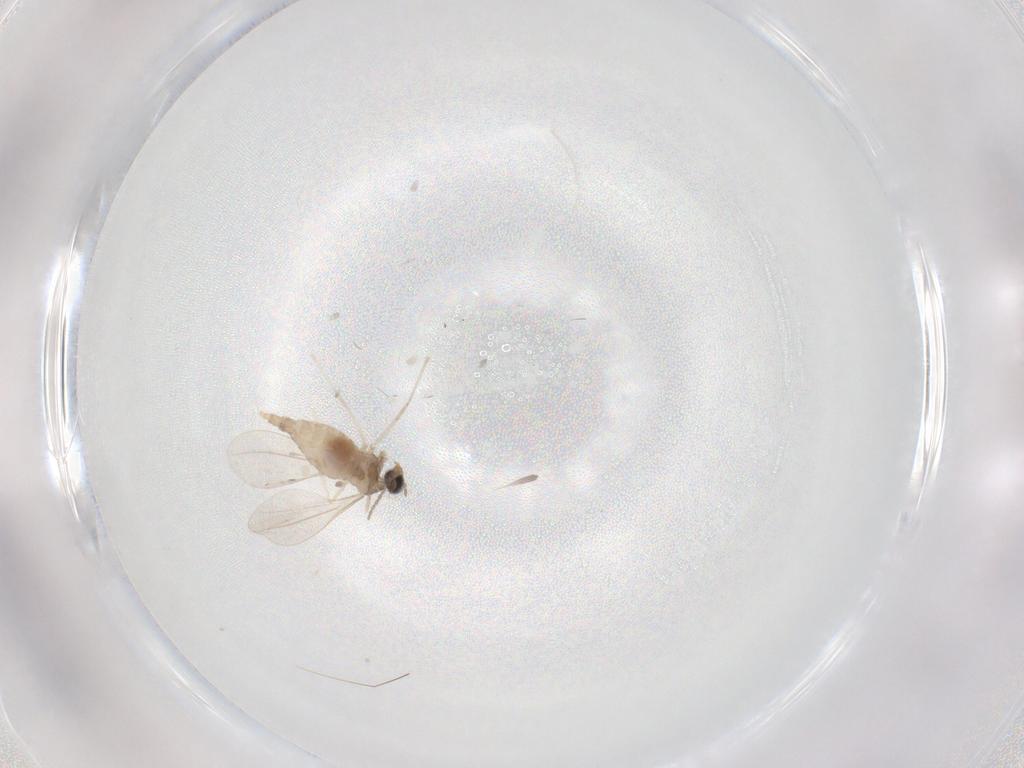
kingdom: Animalia
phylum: Arthropoda
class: Insecta
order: Diptera
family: Cecidomyiidae
